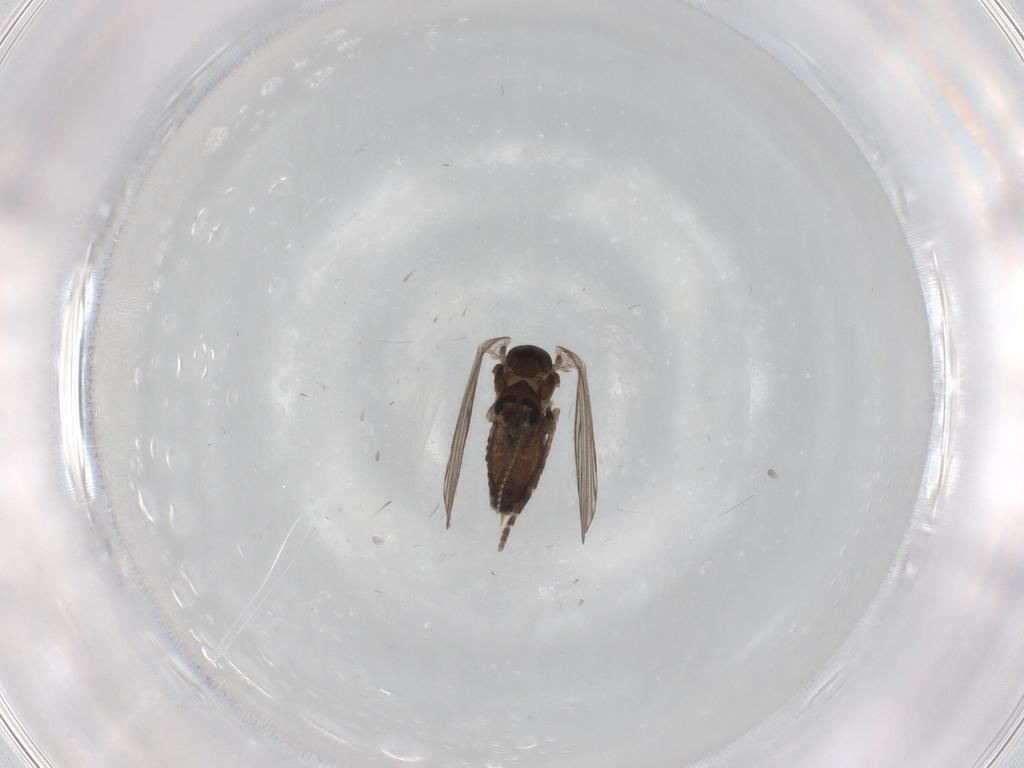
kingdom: Animalia
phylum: Arthropoda
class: Insecta
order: Diptera
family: Psychodidae
